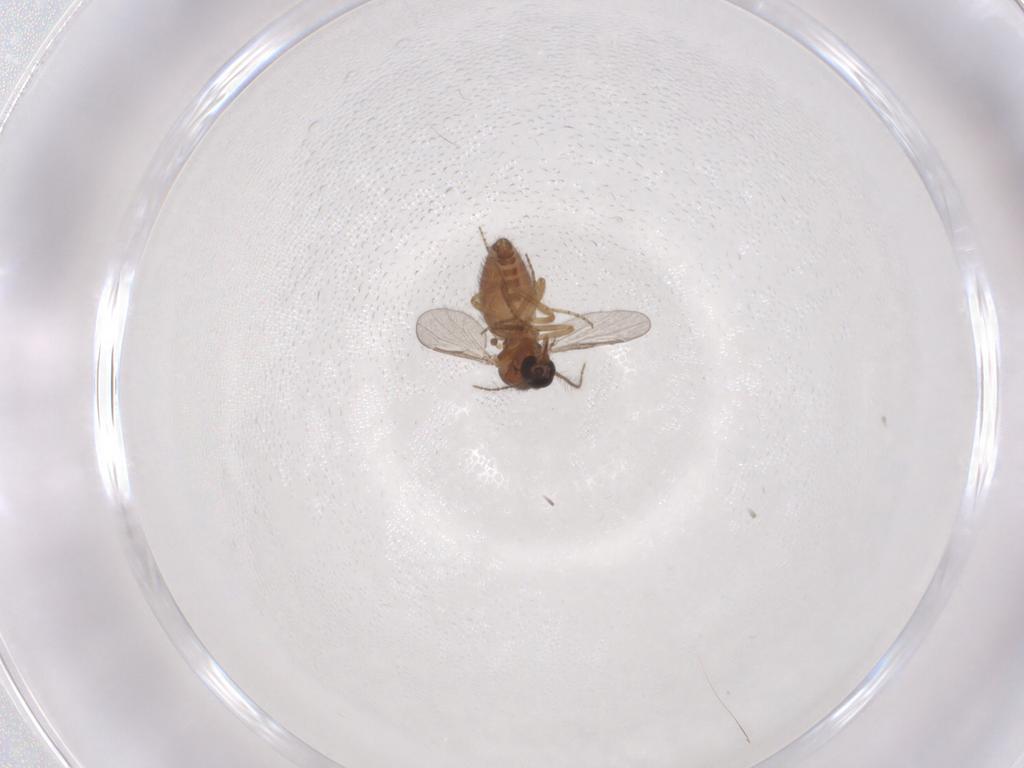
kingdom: Animalia
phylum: Arthropoda
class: Insecta
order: Diptera
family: Ceratopogonidae
